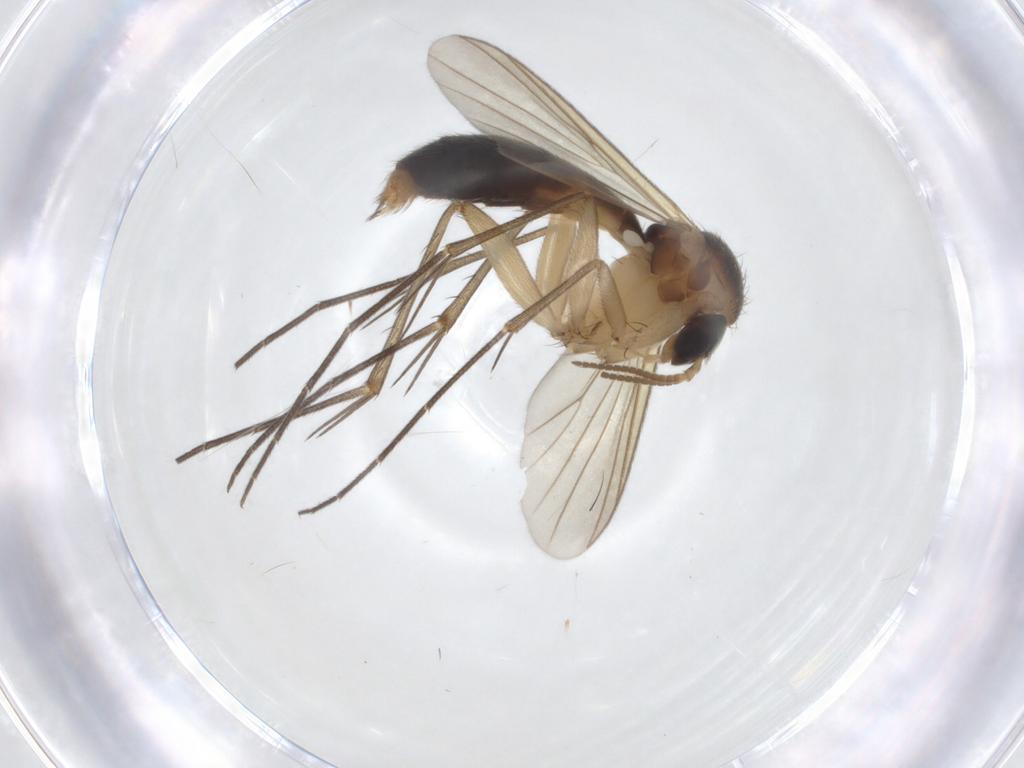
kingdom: Animalia
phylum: Arthropoda
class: Insecta
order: Diptera
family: Mycetophilidae
